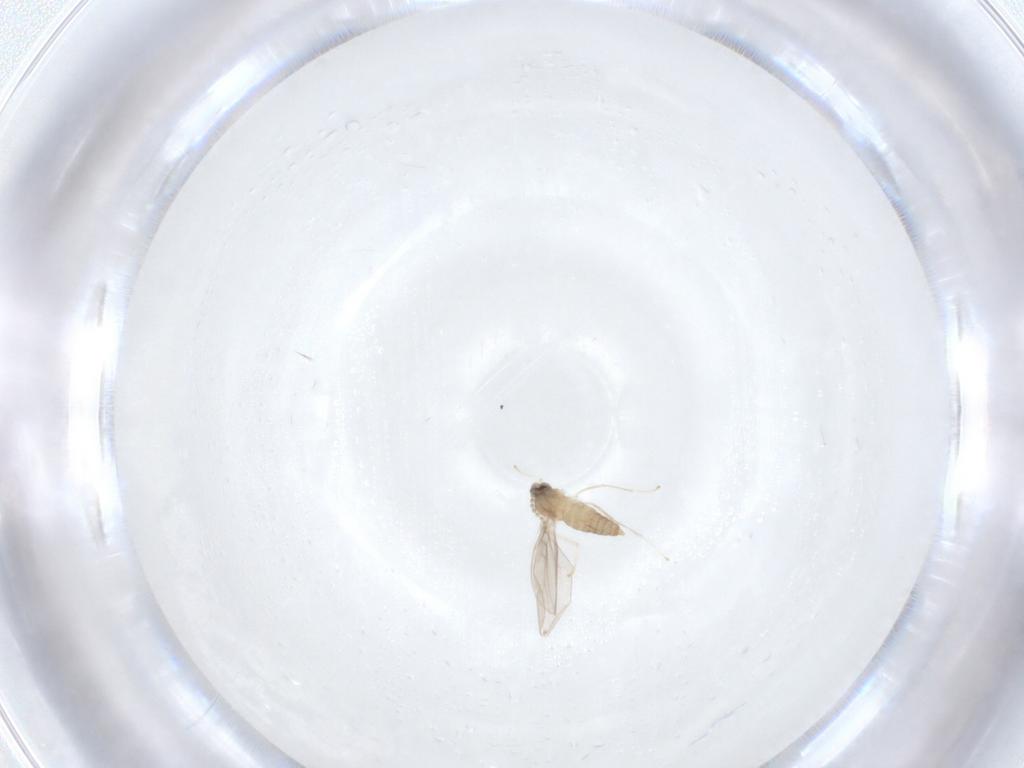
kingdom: Animalia
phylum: Arthropoda
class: Insecta
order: Diptera
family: Cecidomyiidae
